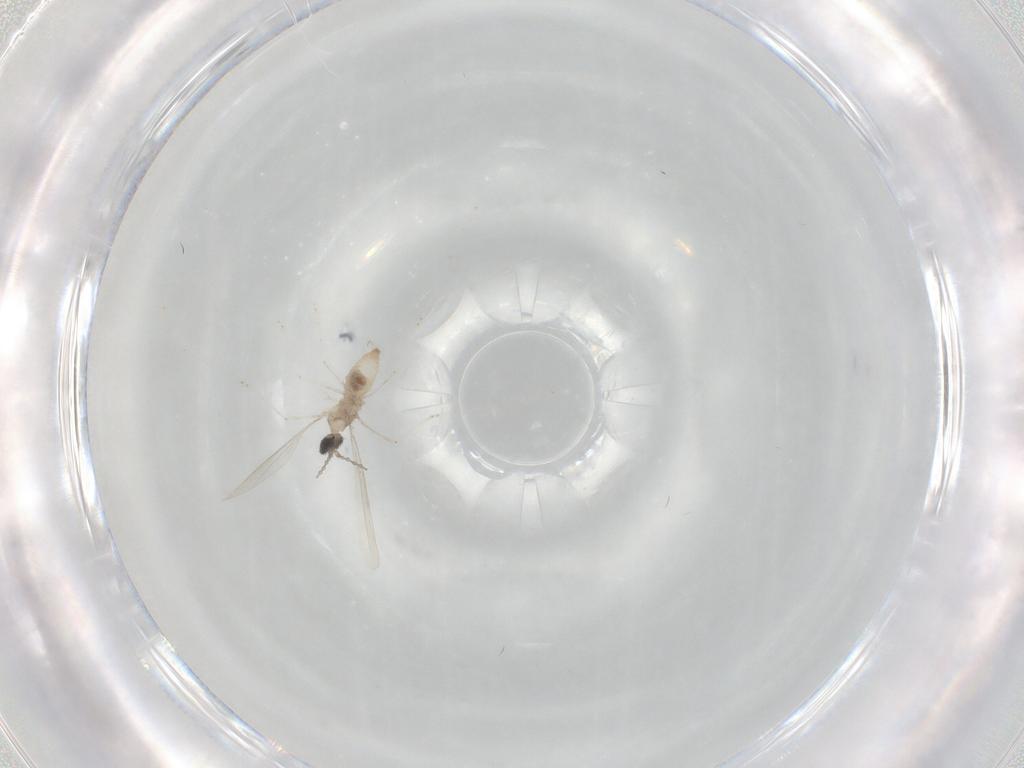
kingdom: Animalia
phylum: Arthropoda
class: Insecta
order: Diptera
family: Cecidomyiidae
